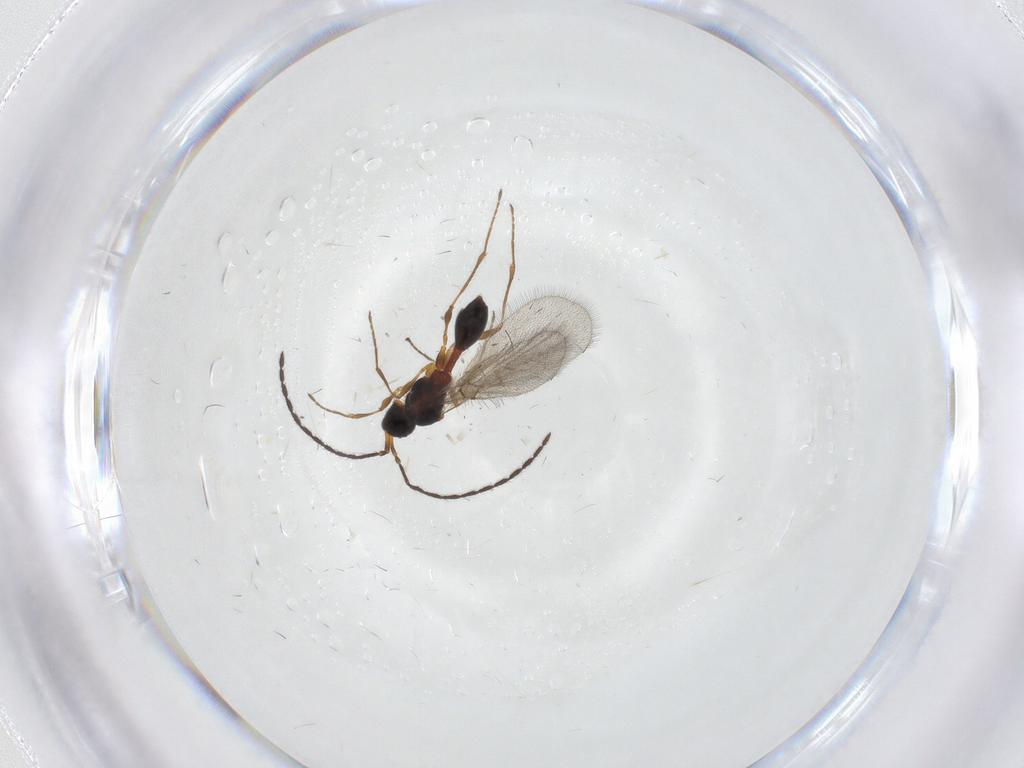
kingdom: Animalia
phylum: Arthropoda
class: Insecta
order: Hymenoptera
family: Diapriidae
